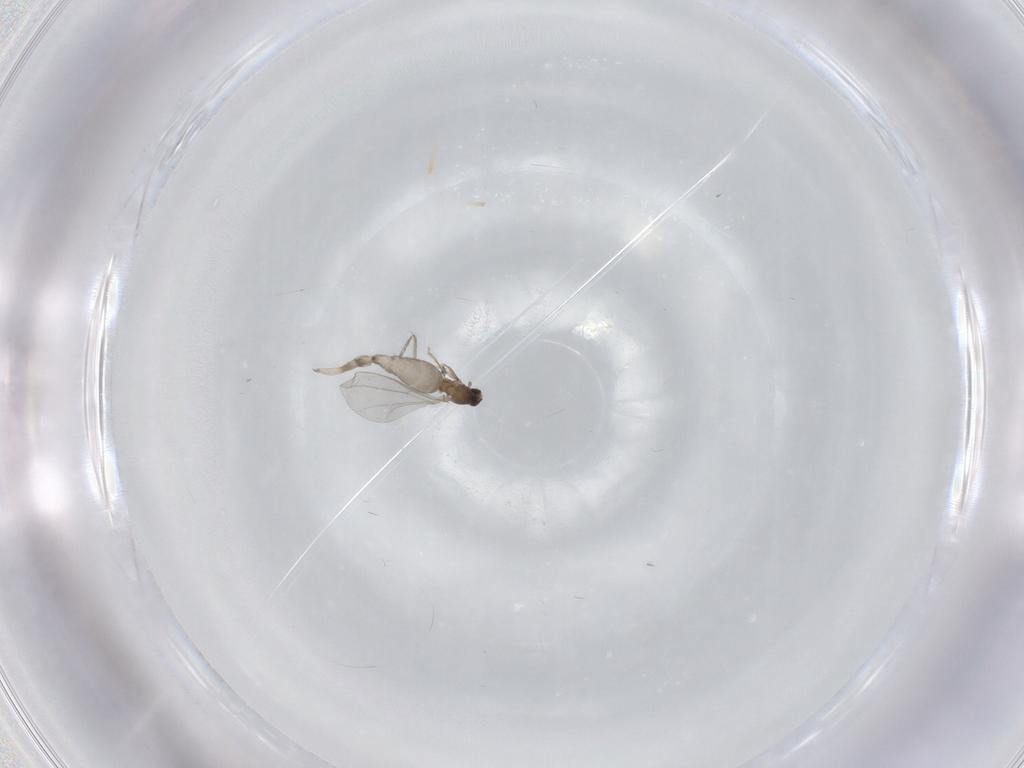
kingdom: Animalia
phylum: Arthropoda
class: Insecta
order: Diptera
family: Cecidomyiidae
